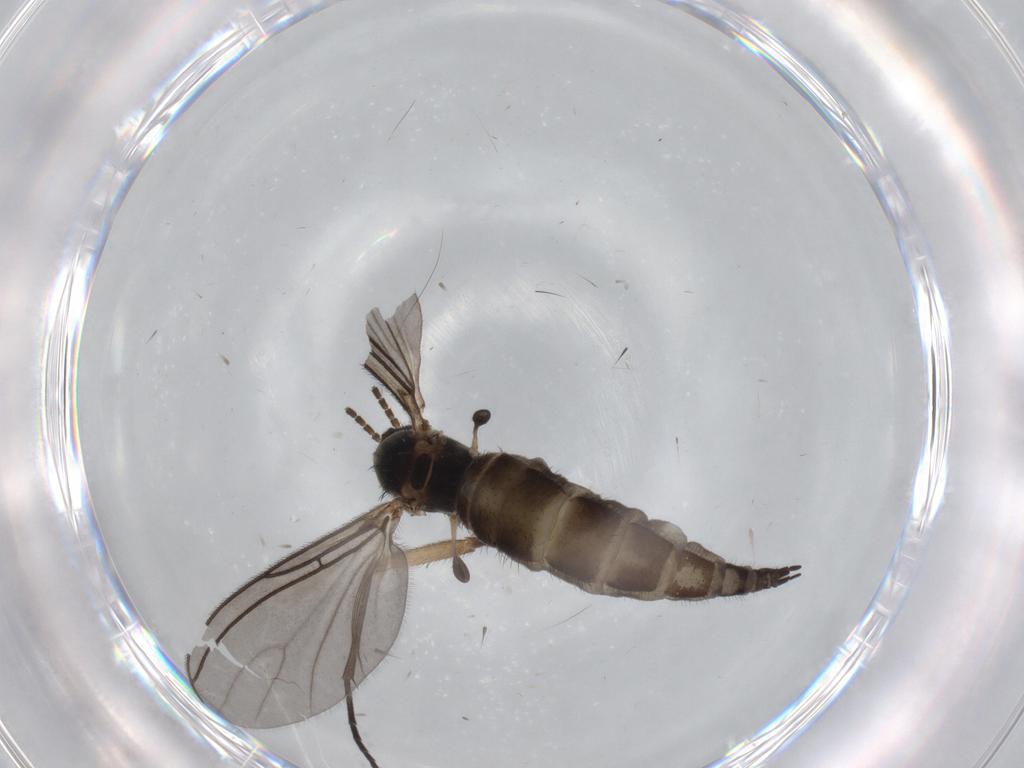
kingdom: Animalia
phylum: Arthropoda
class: Insecta
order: Diptera
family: Sciaridae
